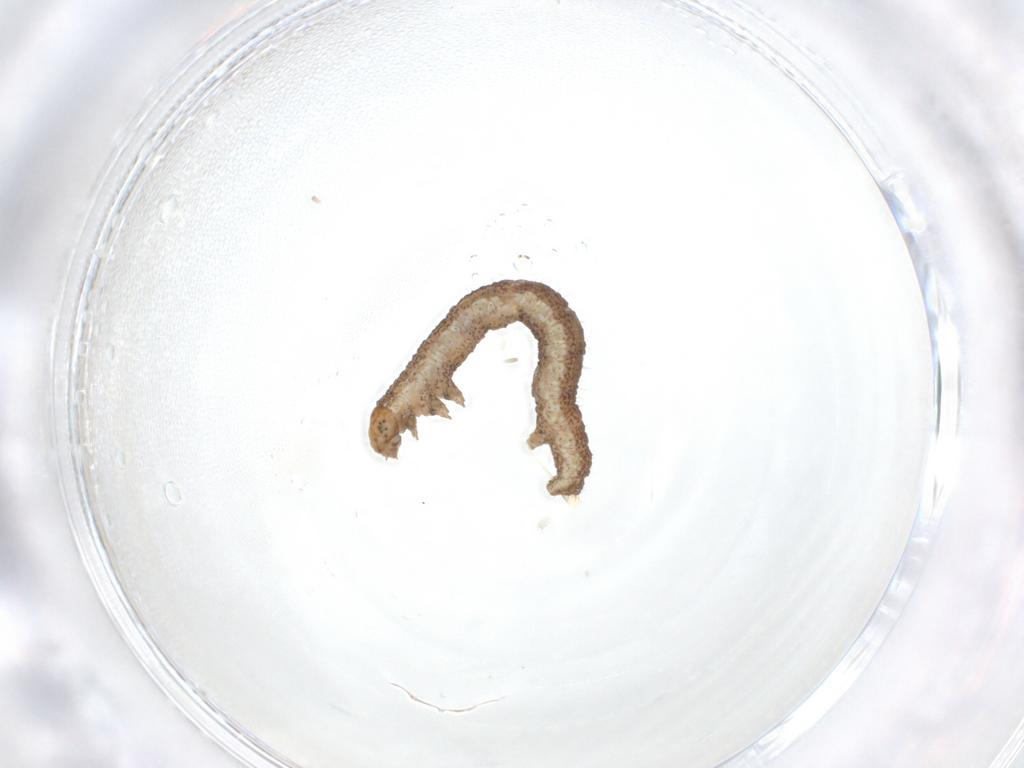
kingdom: Animalia
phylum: Arthropoda
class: Insecta
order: Lepidoptera
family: Geometridae
